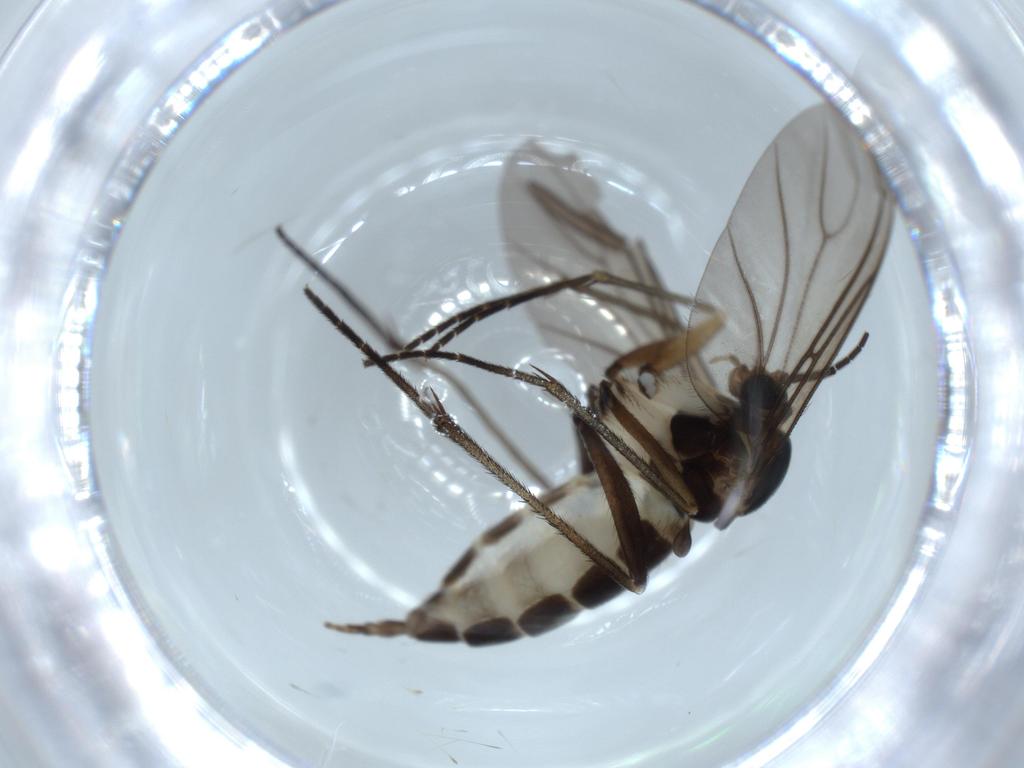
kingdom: Animalia
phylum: Arthropoda
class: Insecta
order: Diptera
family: Sciaridae
